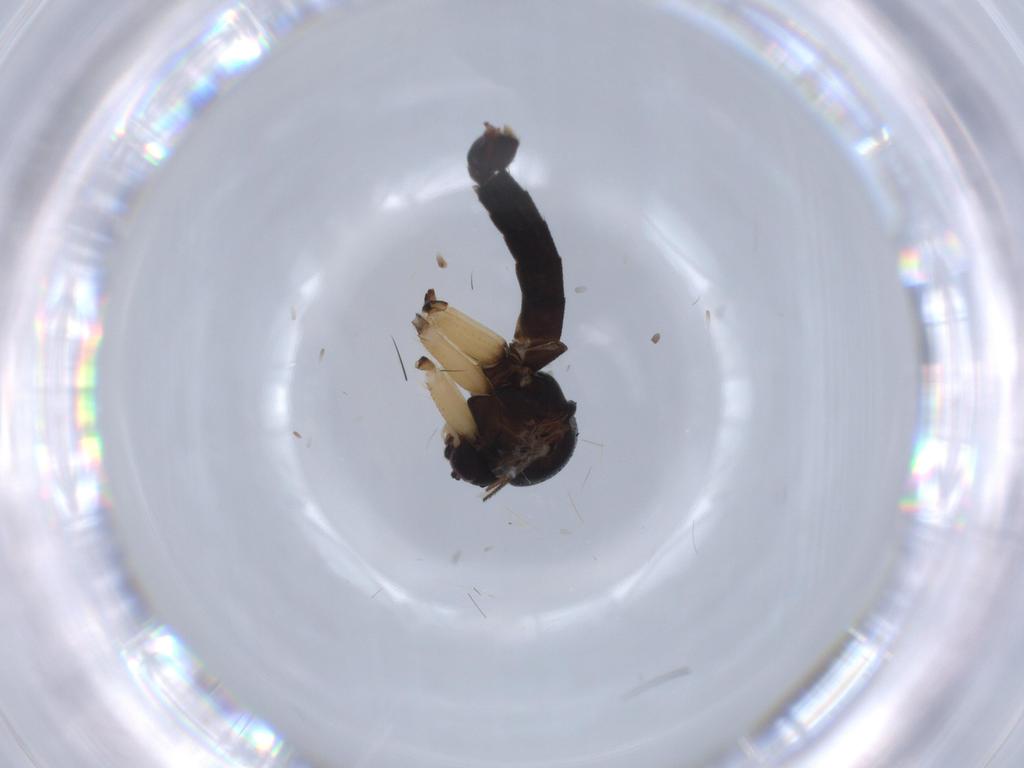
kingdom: Animalia
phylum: Arthropoda
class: Insecta
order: Diptera
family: Muscidae
